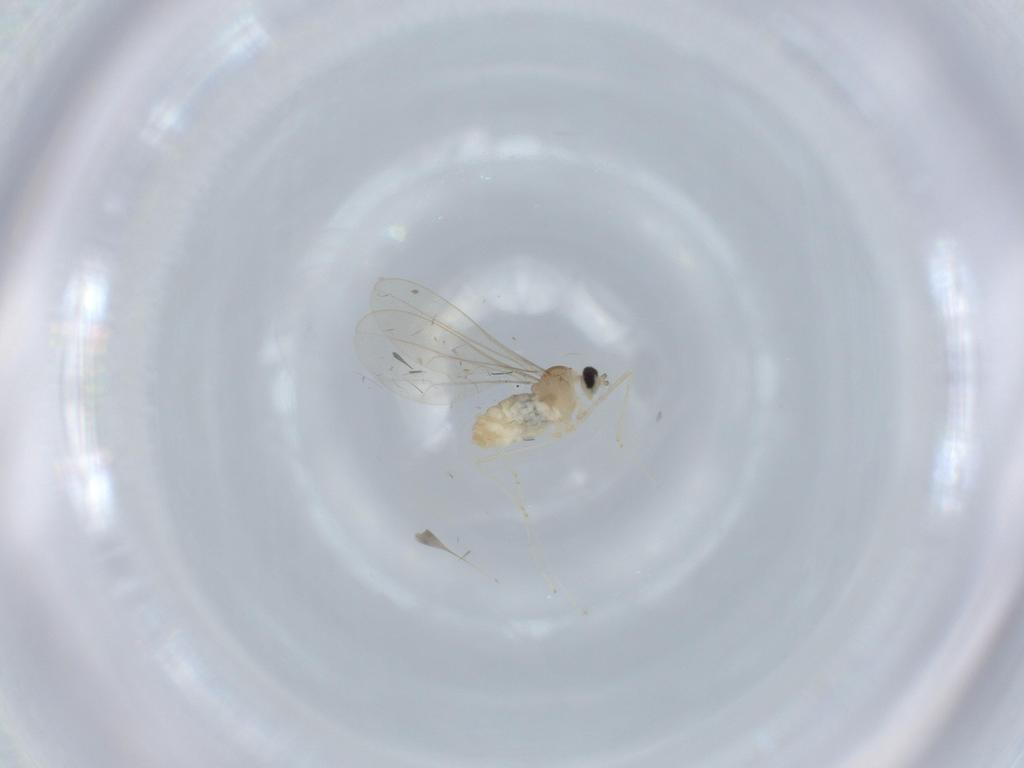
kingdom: Animalia
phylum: Arthropoda
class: Insecta
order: Diptera
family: Cecidomyiidae
